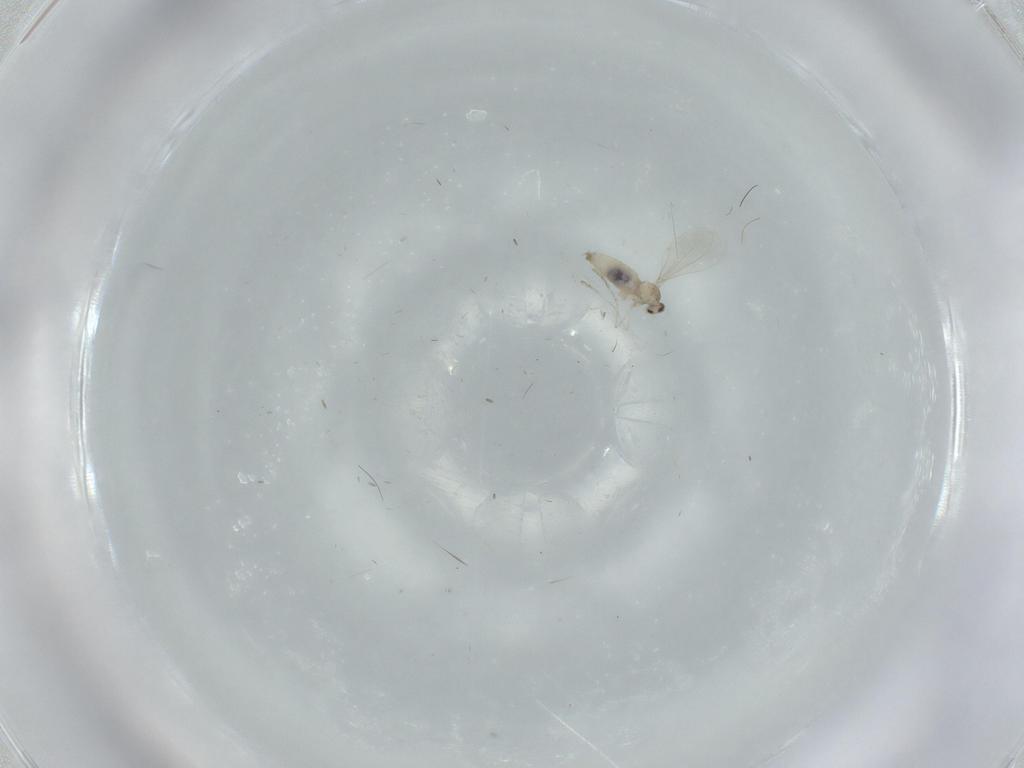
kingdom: Animalia
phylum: Arthropoda
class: Insecta
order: Diptera
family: Cecidomyiidae
